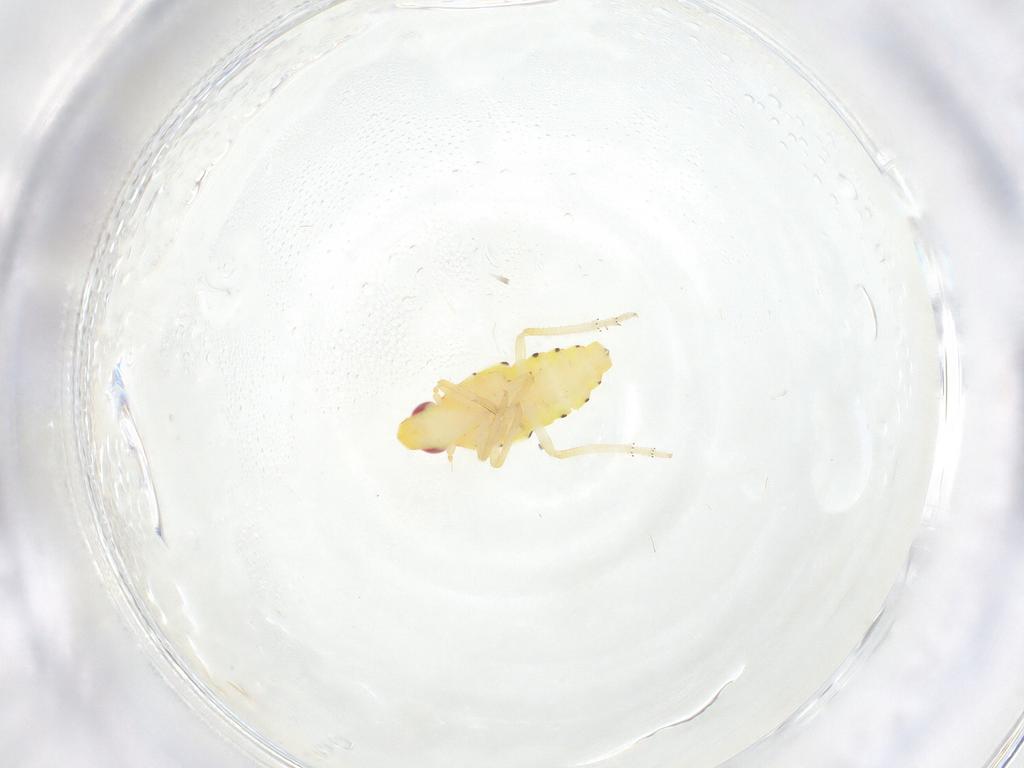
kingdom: Animalia
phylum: Arthropoda
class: Insecta
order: Hemiptera
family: Tropiduchidae
